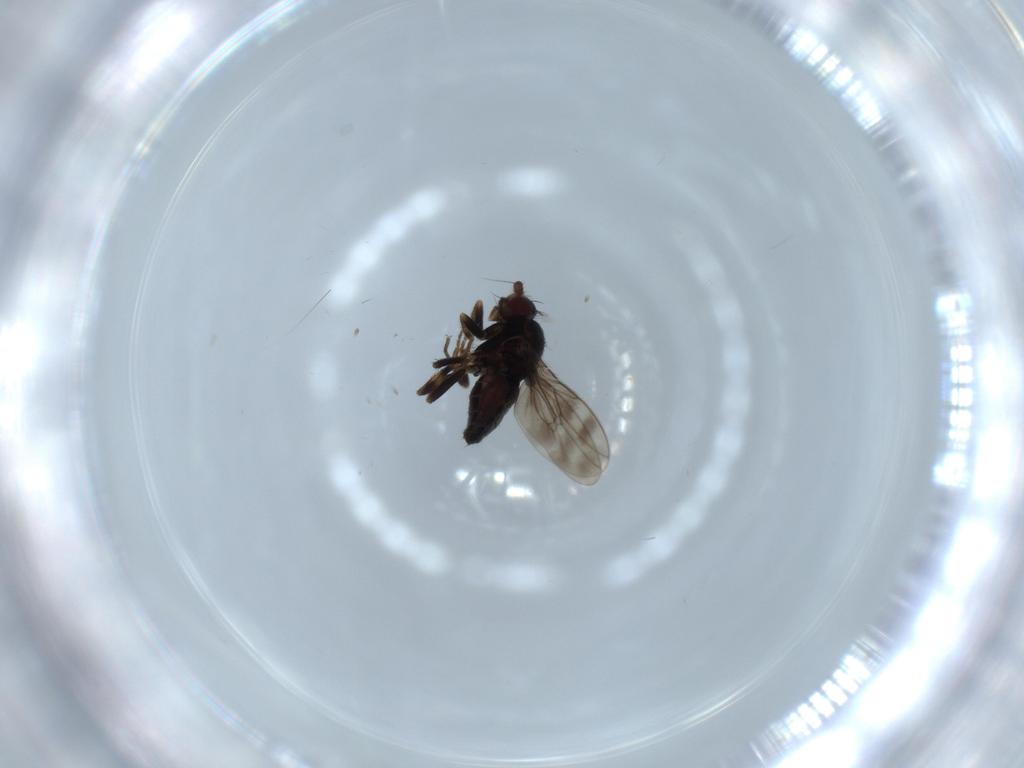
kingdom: Animalia
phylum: Arthropoda
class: Insecta
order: Diptera
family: Sphaeroceridae
